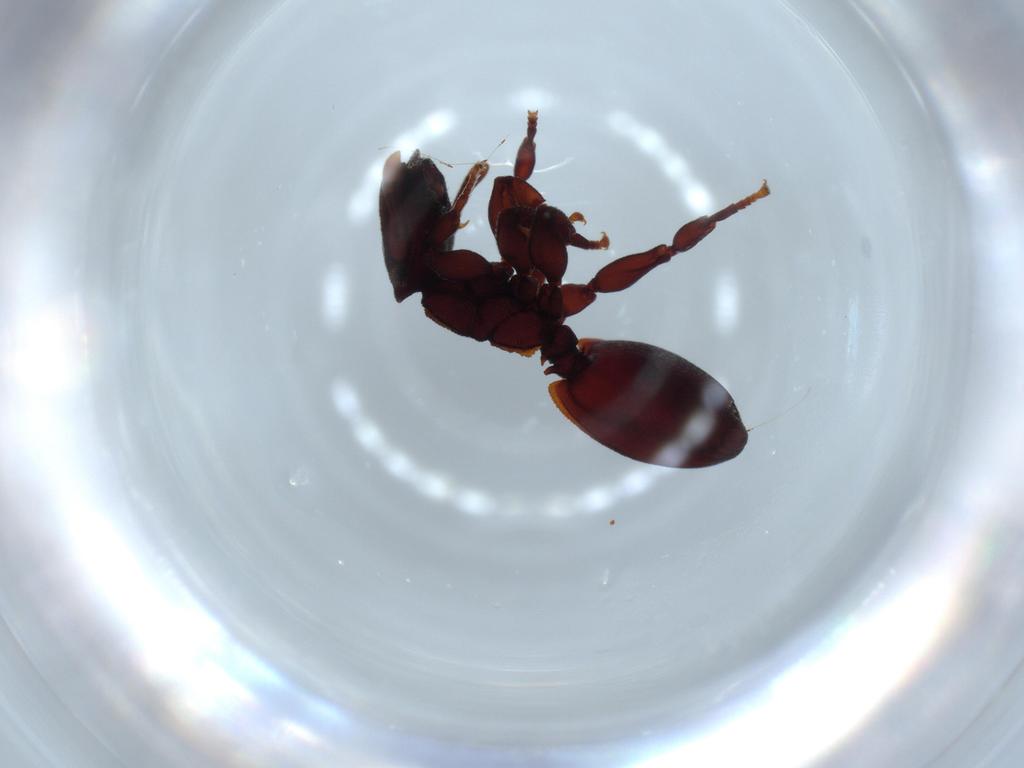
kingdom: Animalia
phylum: Arthropoda
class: Insecta
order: Hymenoptera
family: Formicidae
